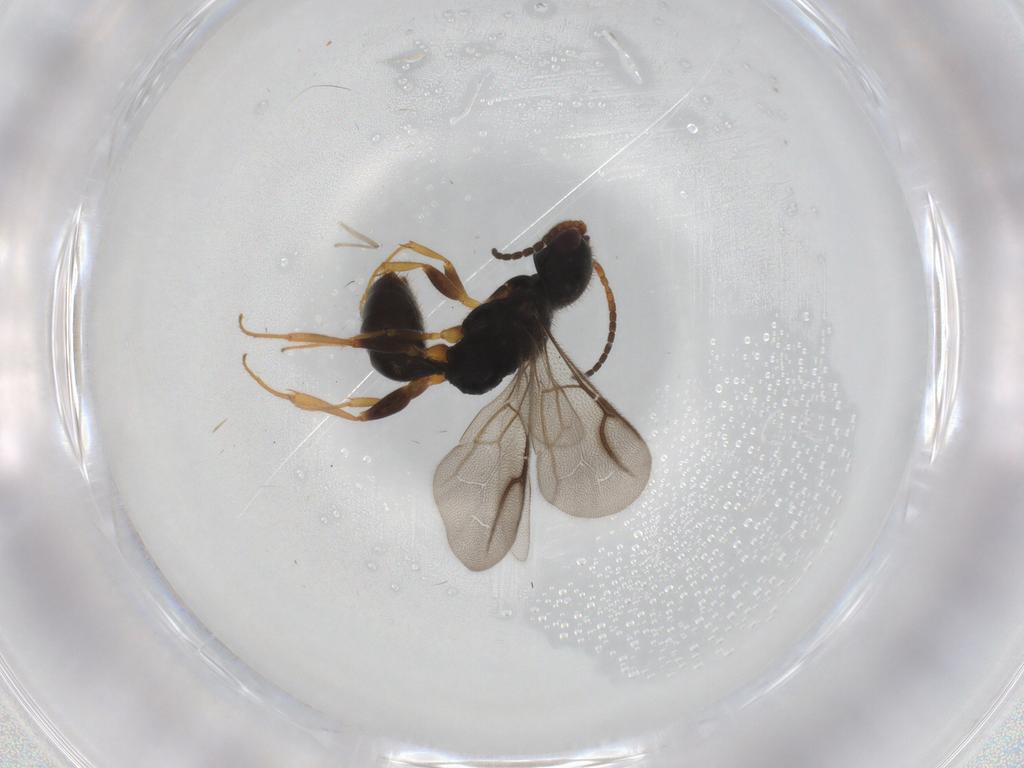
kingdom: Animalia
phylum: Arthropoda
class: Insecta
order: Hymenoptera
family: Bethylidae
